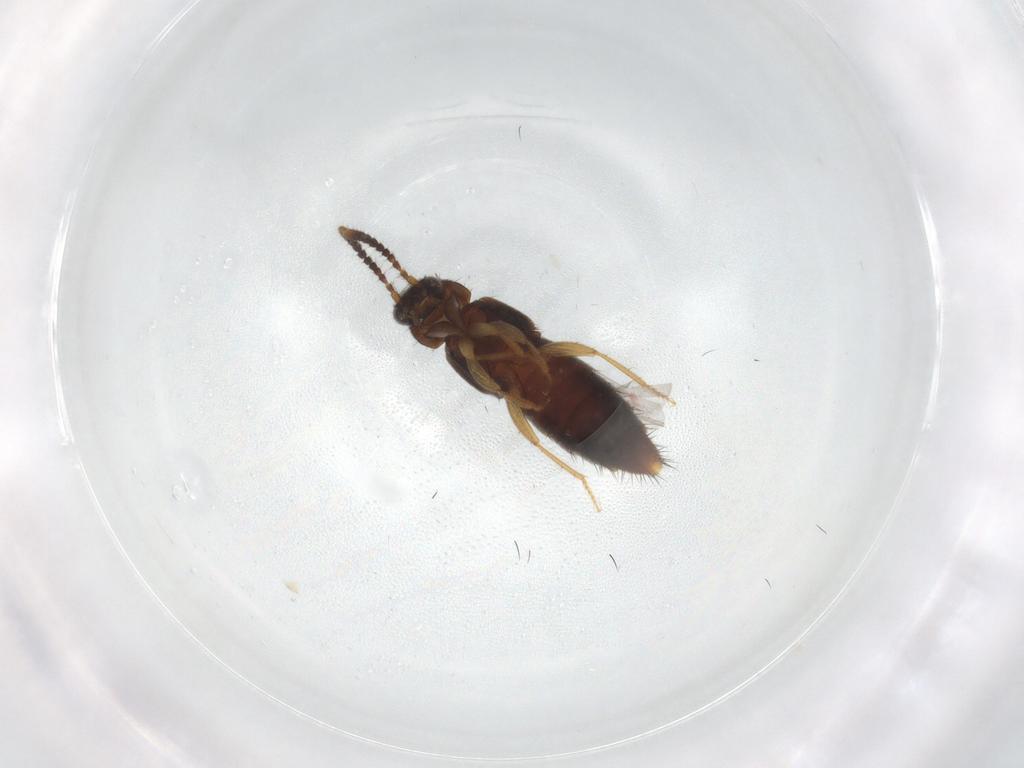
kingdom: Animalia
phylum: Arthropoda
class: Insecta
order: Coleoptera
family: Staphylinidae
